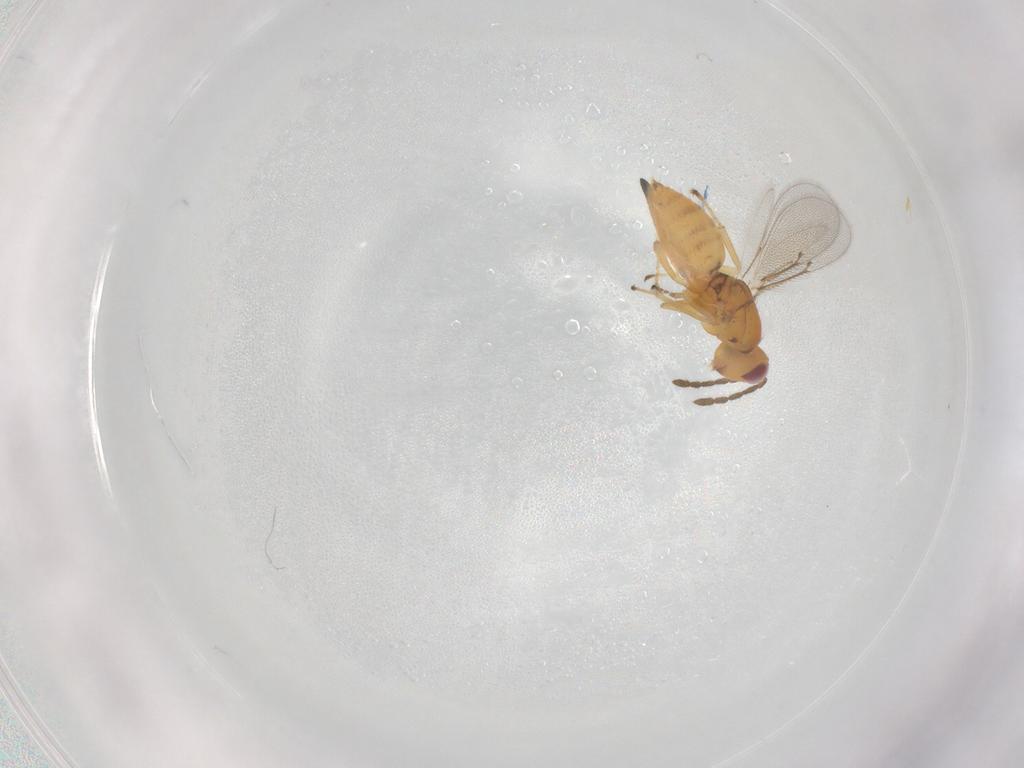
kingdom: Animalia
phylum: Arthropoda
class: Insecta
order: Hymenoptera
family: Eulophidae
